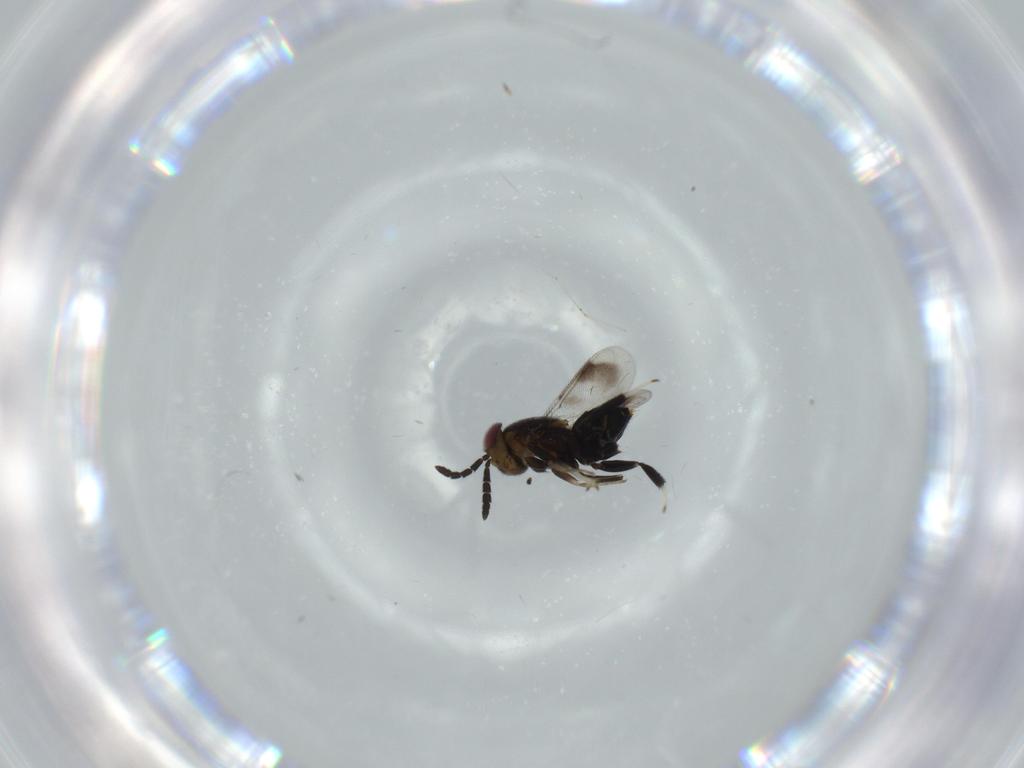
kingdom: Animalia
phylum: Arthropoda
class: Insecta
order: Hymenoptera
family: Aphelinidae
